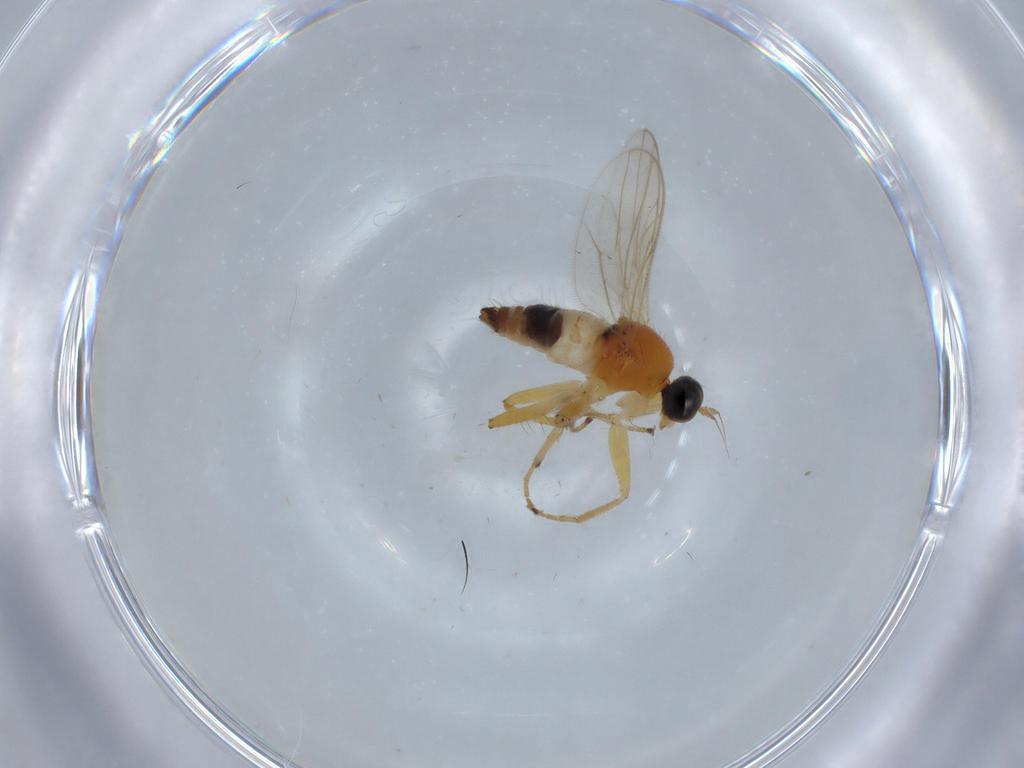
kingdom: Animalia
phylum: Arthropoda
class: Insecta
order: Diptera
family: Hybotidae
